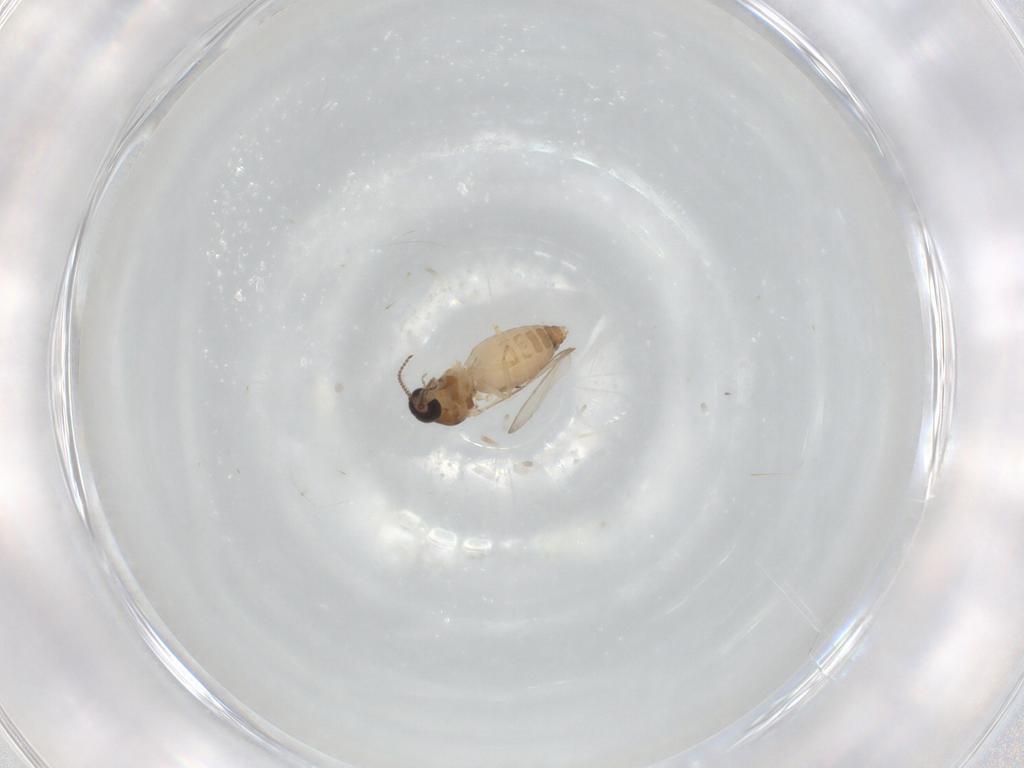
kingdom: Animalia
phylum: Arthropoda
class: Insecta
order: Diptera
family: Ceratopogonidae
